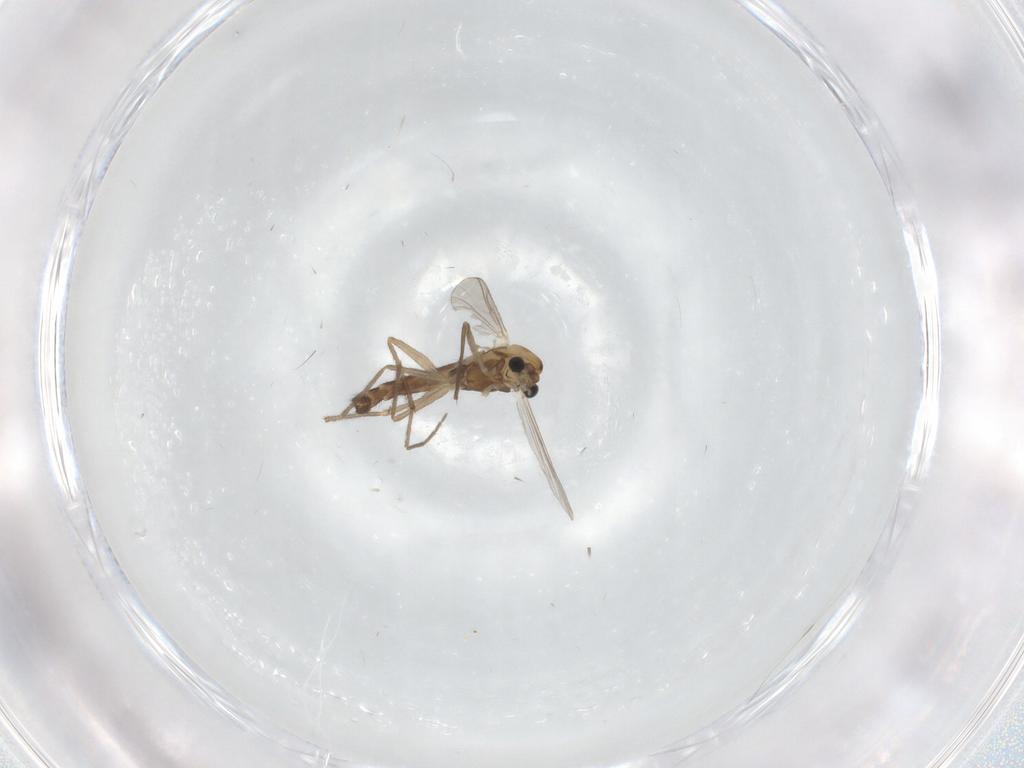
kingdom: Animalia
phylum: Arthropoda
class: Insecta
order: Diptera
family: Chironomidae
